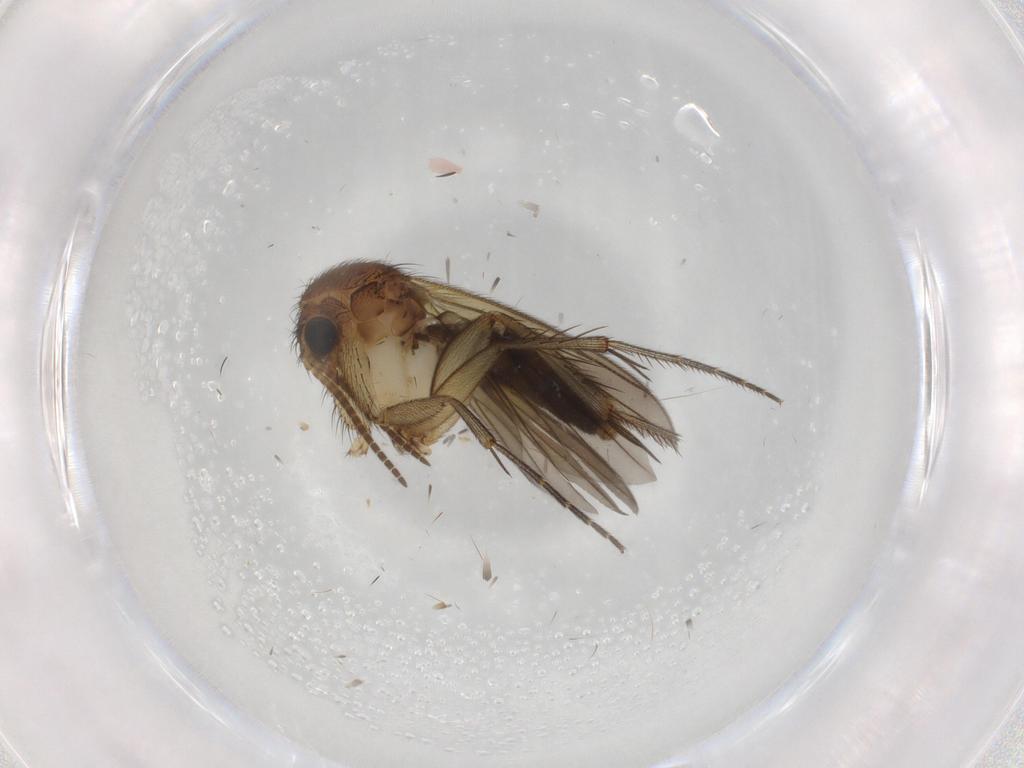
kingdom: Animalia
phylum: Arthropoda
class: Insecta
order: Diptera
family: Mycetophilidae
